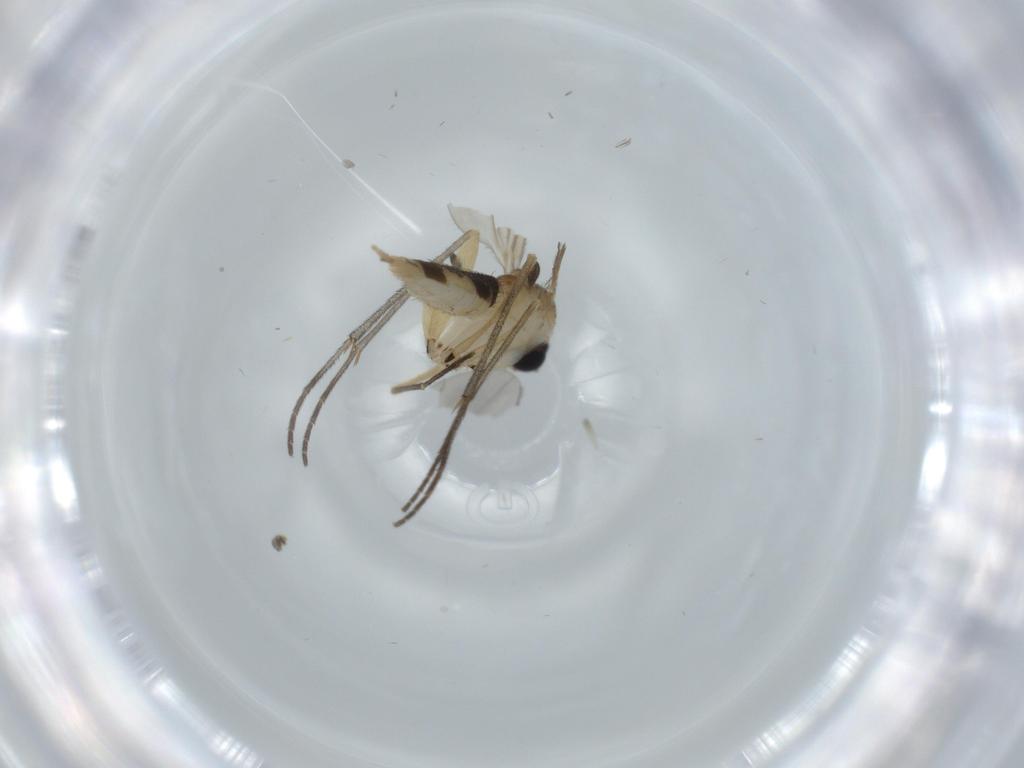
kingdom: Animalia
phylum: Arthropoda
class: Insecta
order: Diptera
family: Sciaridae
